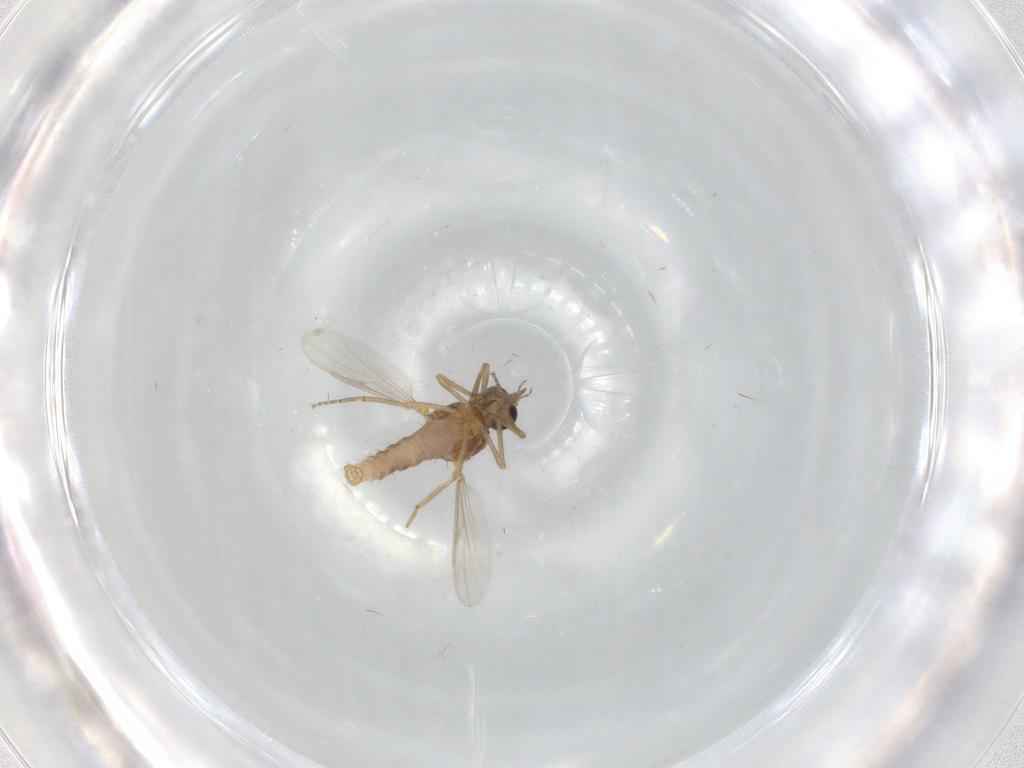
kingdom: Animalia
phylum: Arthropoda
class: Insecta
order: Diptera
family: Ceratopogonidae
